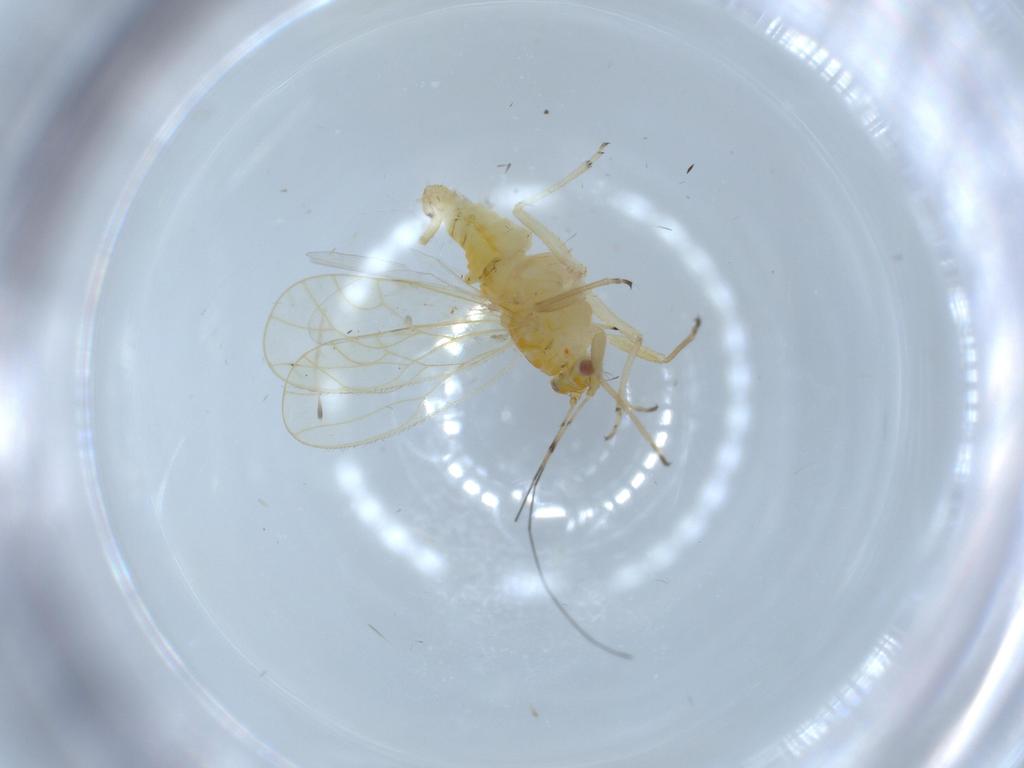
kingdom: Animalia
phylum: Arthropoda
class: Insecta
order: Hemiptera
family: Psyllidae
